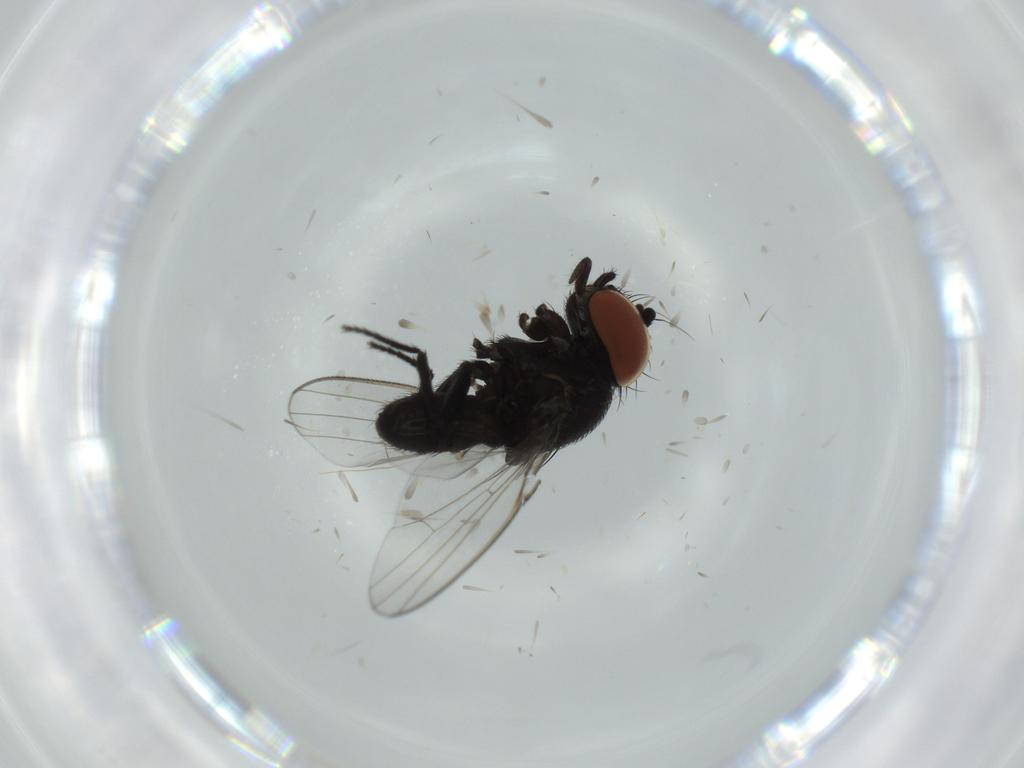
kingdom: Animalia
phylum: Arthropoda
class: Insecta
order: Diptera
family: Milichiidae
